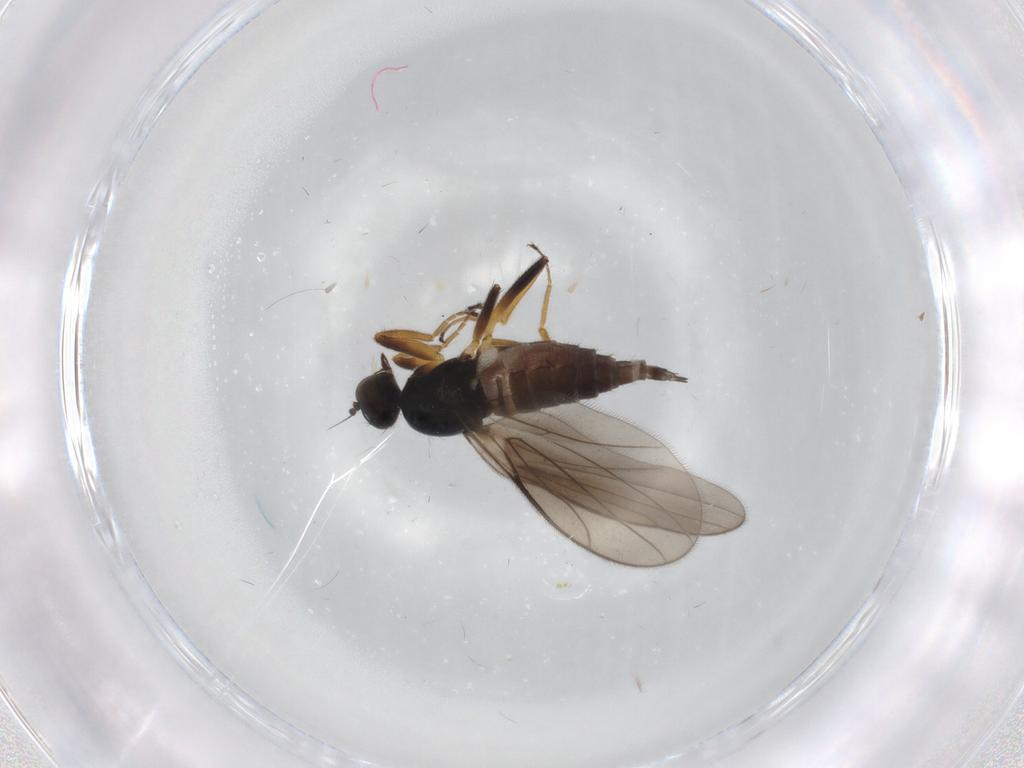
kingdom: Animalia
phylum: Arthropoda
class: Insecta
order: Diptera
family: Hybotidae
